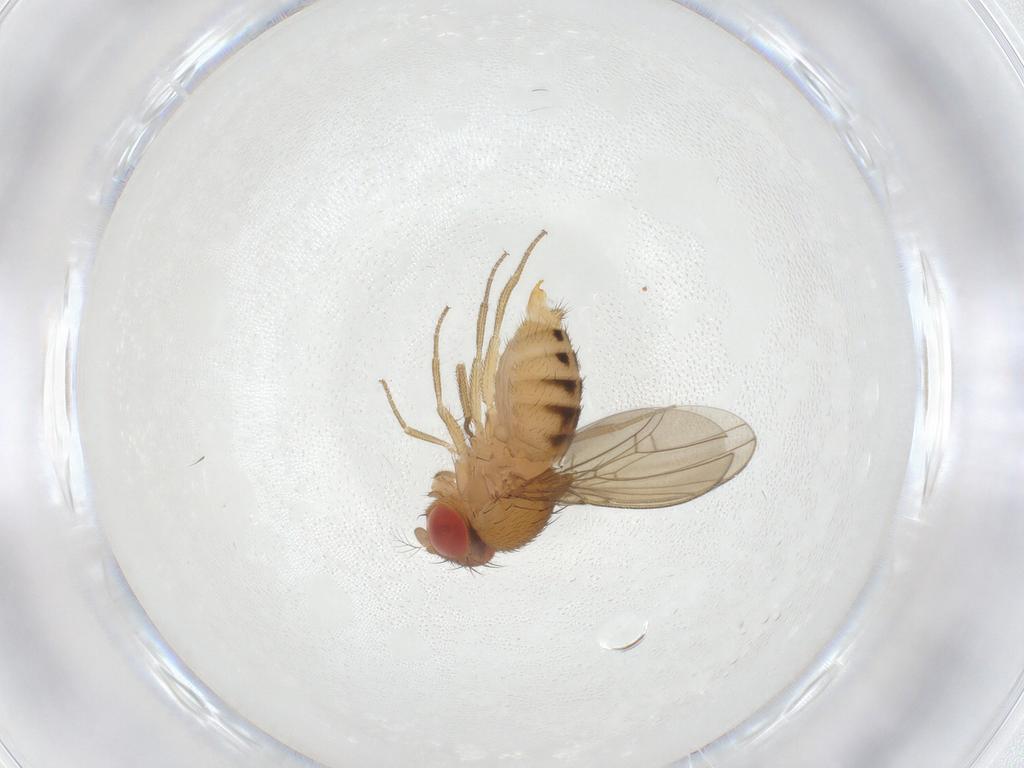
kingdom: Animalia
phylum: Arthropoda
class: Insecta
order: Diptera
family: Drosophilidae
